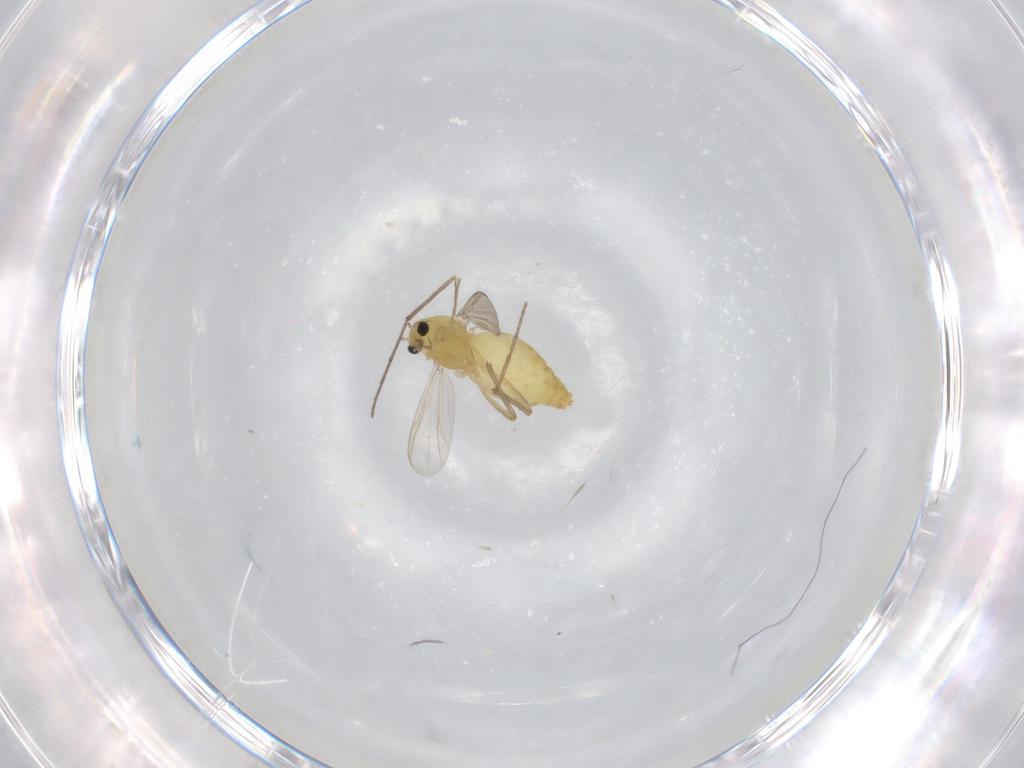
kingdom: Animalia
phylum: Arthropoda
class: Insecta
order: Diptera
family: Chironomidae
